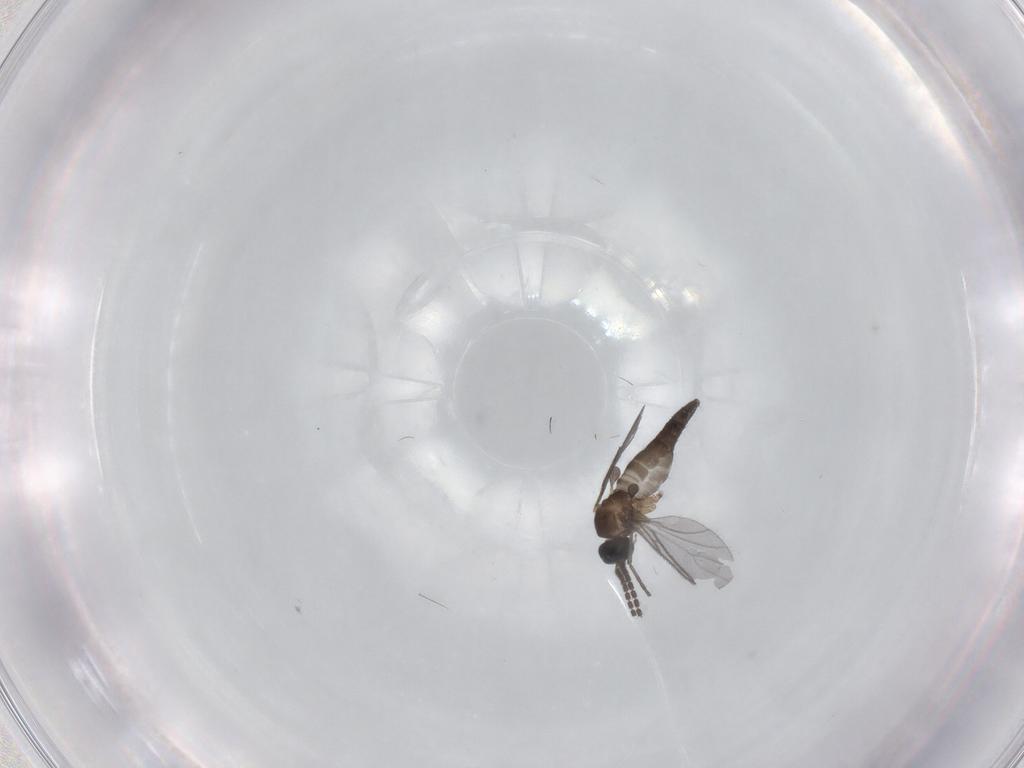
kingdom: Animalia
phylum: Arthropoda
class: Insecta
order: Diptera
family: Sciaridae
